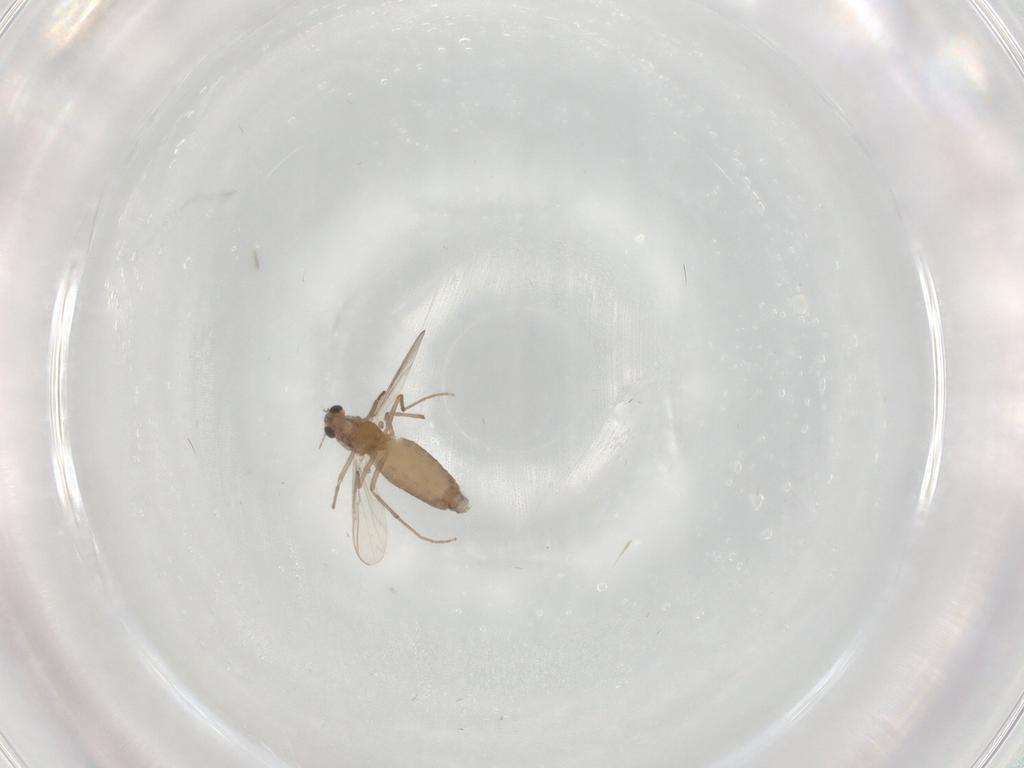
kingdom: Animalia
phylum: Arthropoda
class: Insecta
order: Diptera
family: Chironomidae
